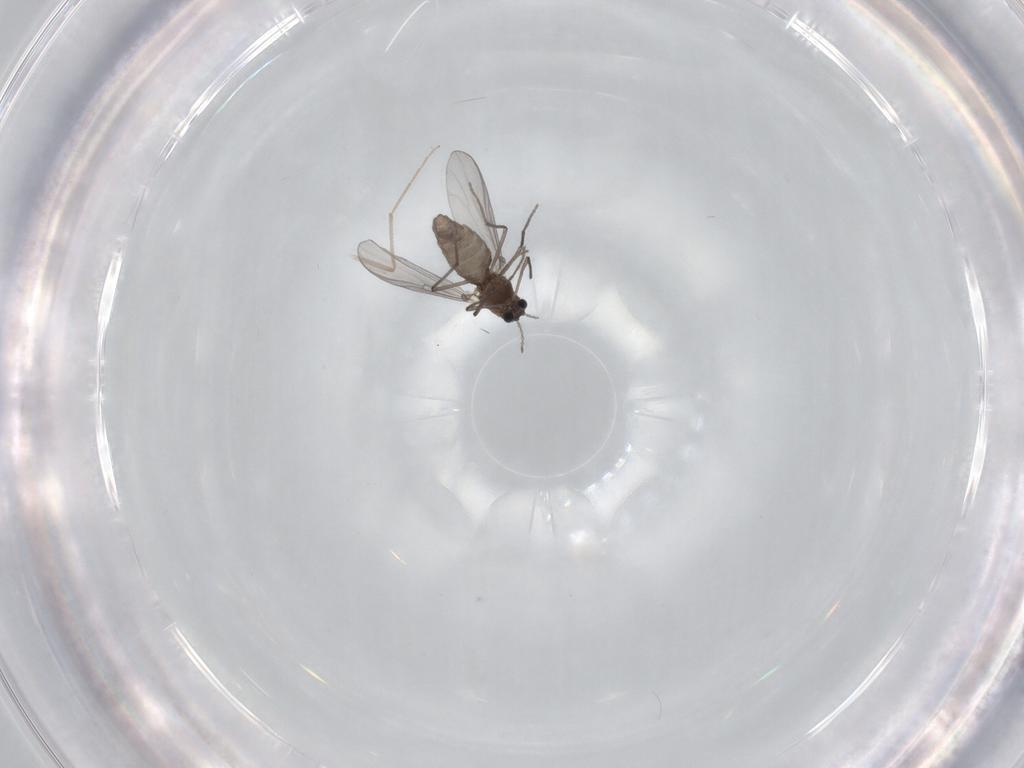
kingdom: Animalia
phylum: Arthropoda
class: Insecta
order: Diptera
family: Chironomidae
